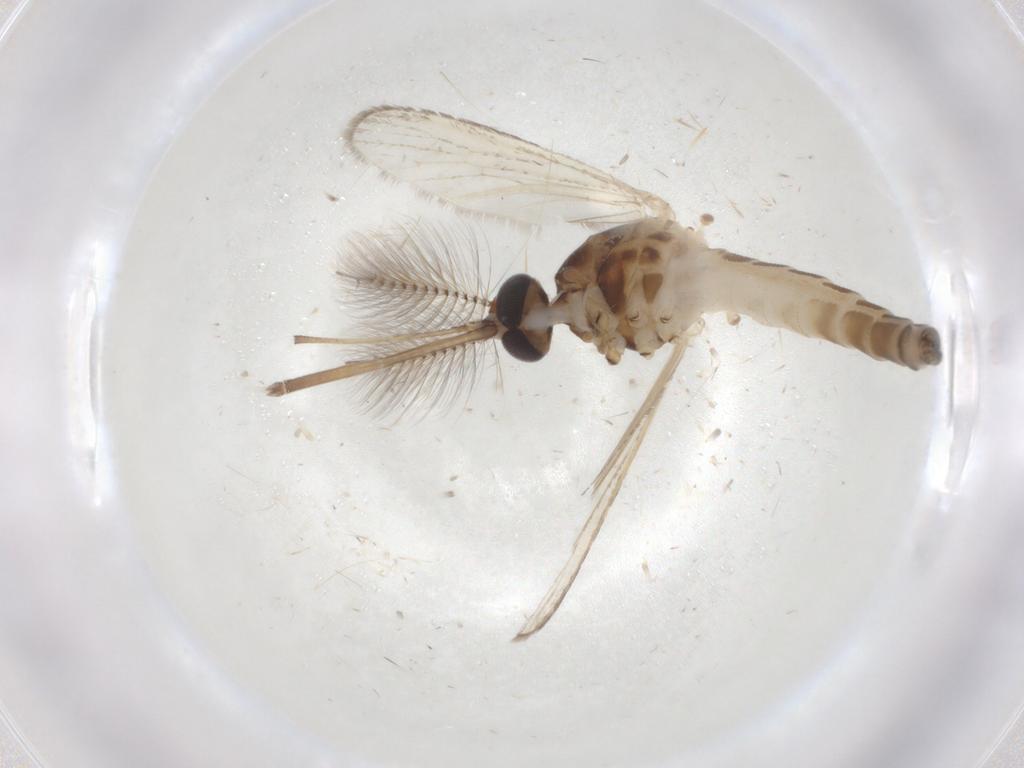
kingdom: Animalia
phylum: Arthropoda
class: Insecta
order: Diptera
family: Phoridae
